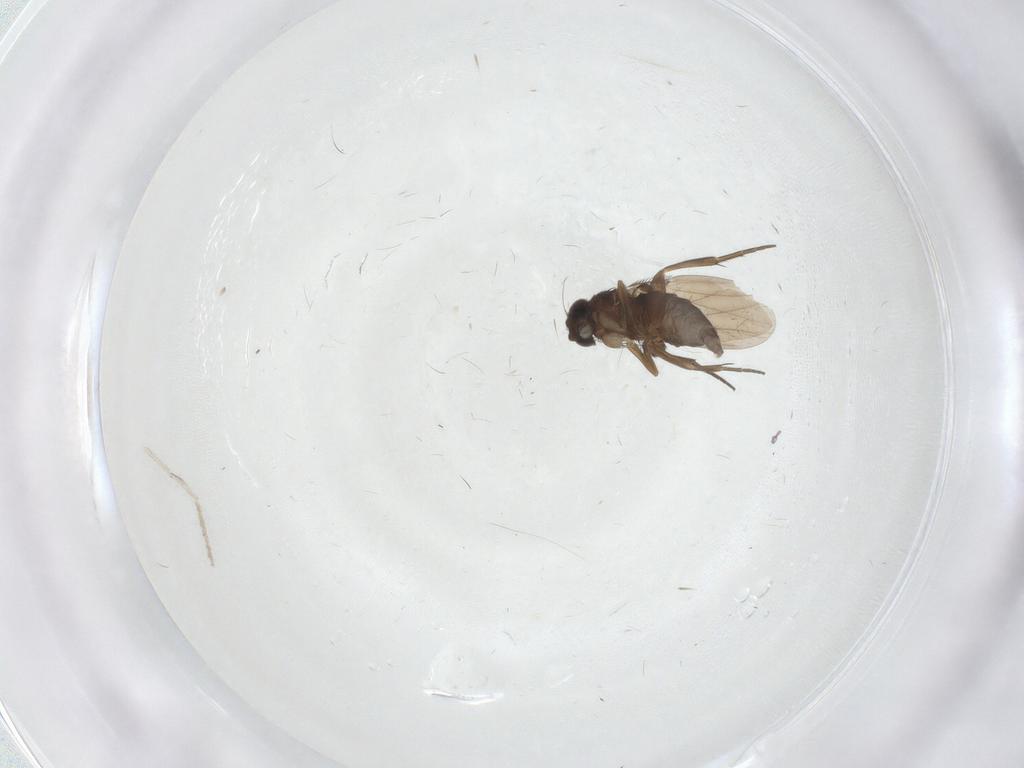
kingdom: Animalia
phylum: Arthropoda
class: Insecta
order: Diptera
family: Phoridae
